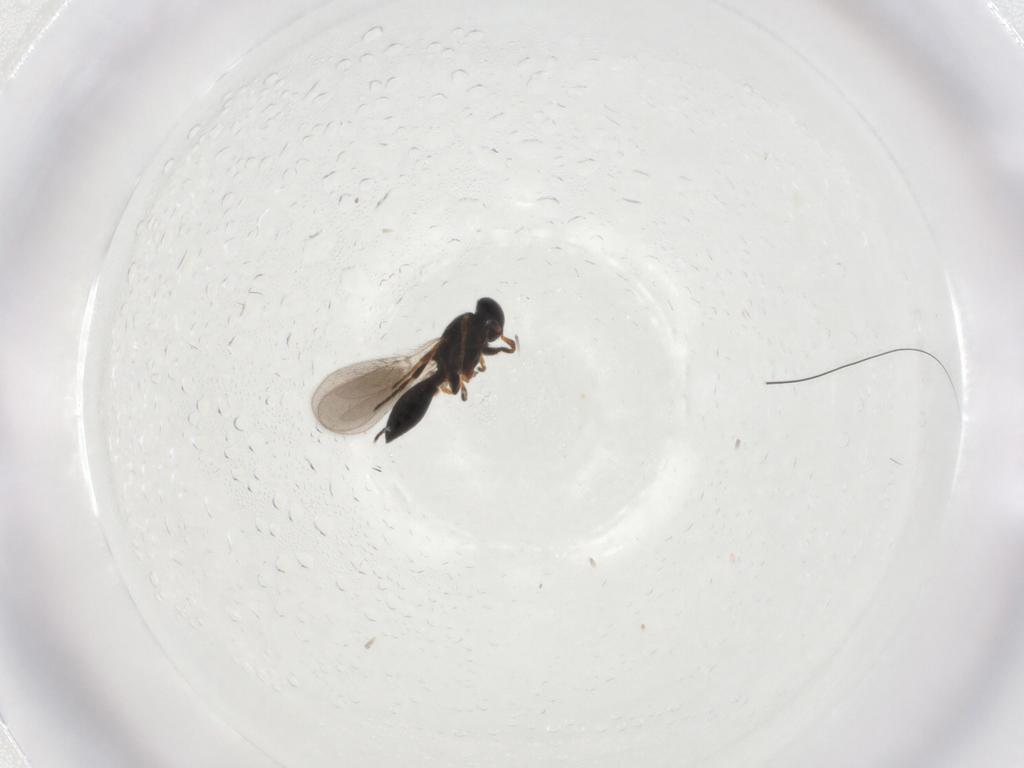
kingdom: Animalia
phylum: Arthropoda
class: Insecta
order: Hymenoptera
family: Platygastridae
